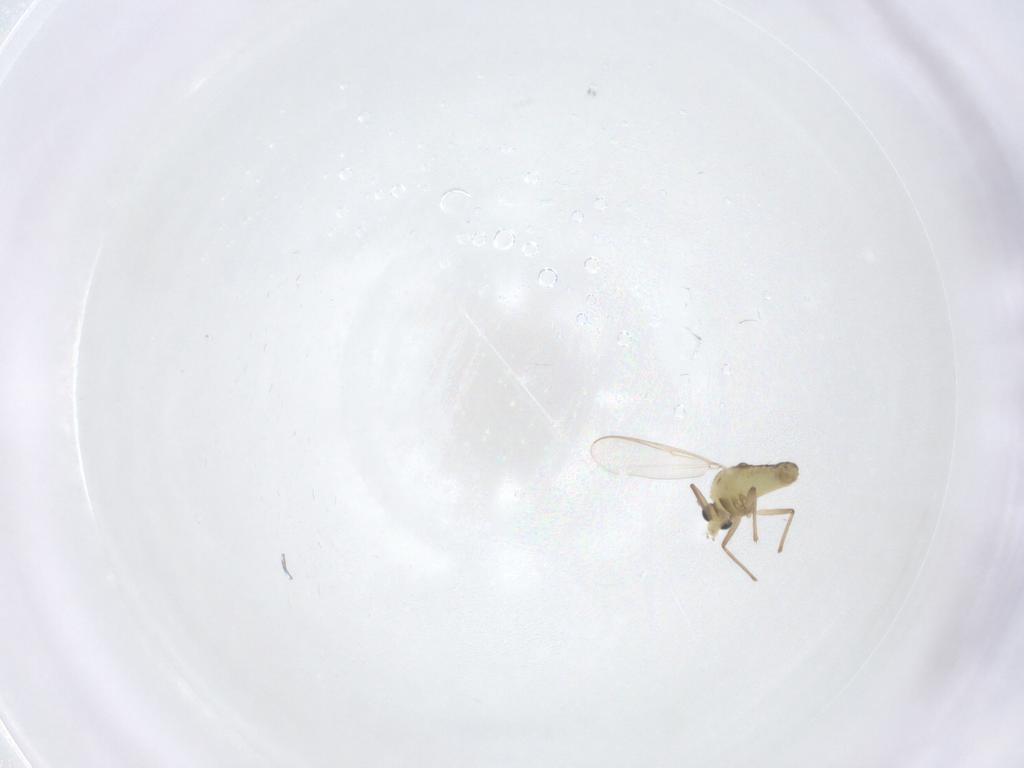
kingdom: Animalia
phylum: Arthropoda
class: Insecta
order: Diptera
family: Chironomidae
